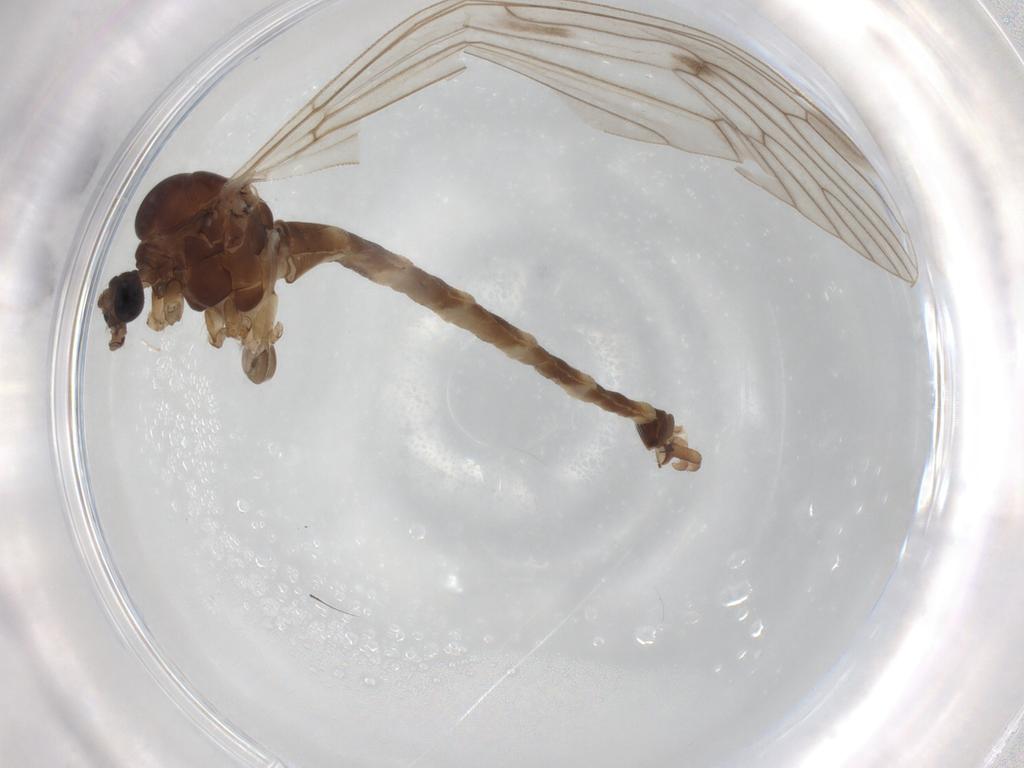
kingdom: Animalia
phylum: Arthropoda
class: Insecta
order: Diptera
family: Trichoceridae
